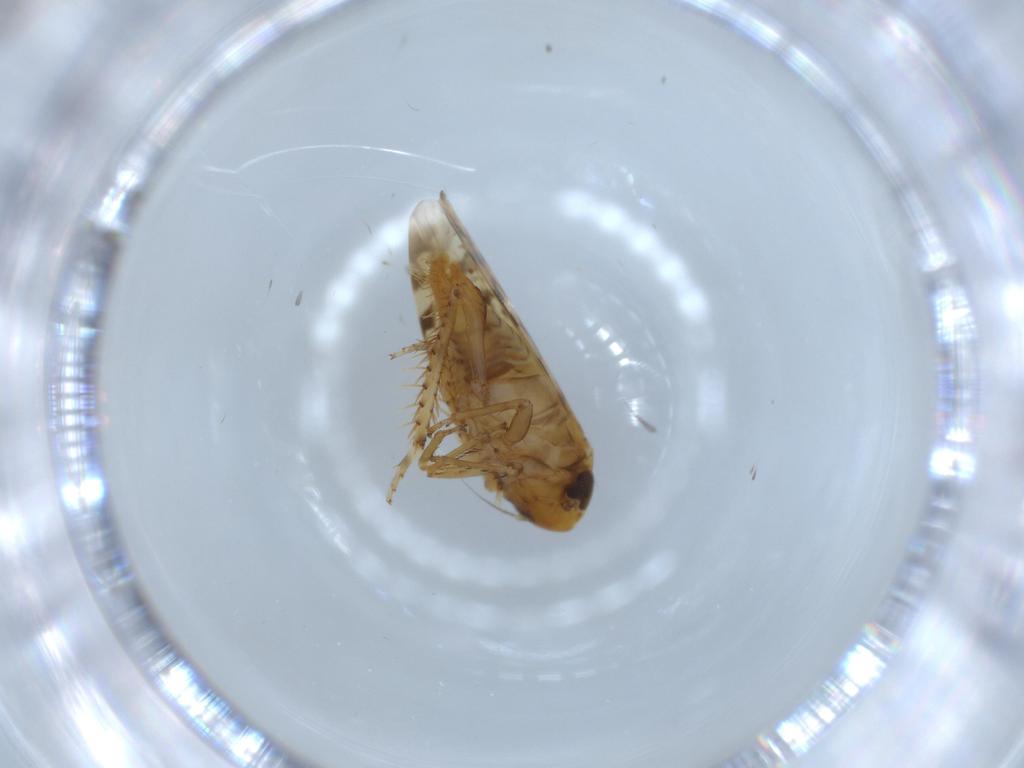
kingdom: Animalia
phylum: Arthropoda
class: Insecta
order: Hemiptera
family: Cicadellidae
